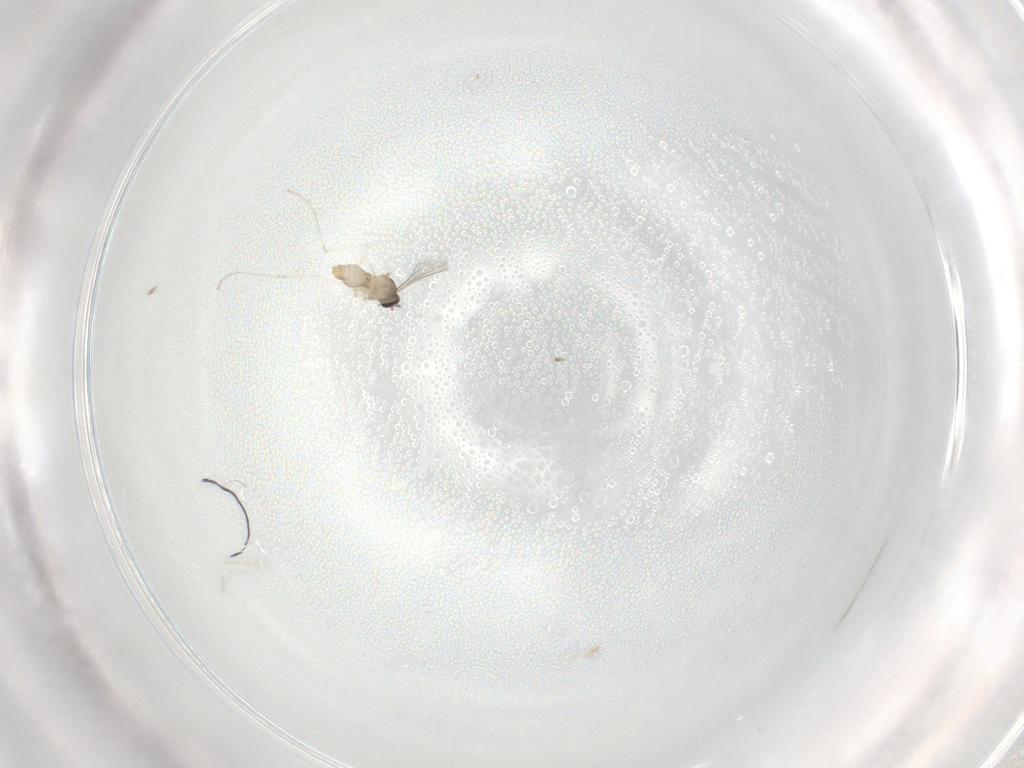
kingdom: Animalia
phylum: Arthropoda
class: Insecta
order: Diptera
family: Cecidomyiidae
